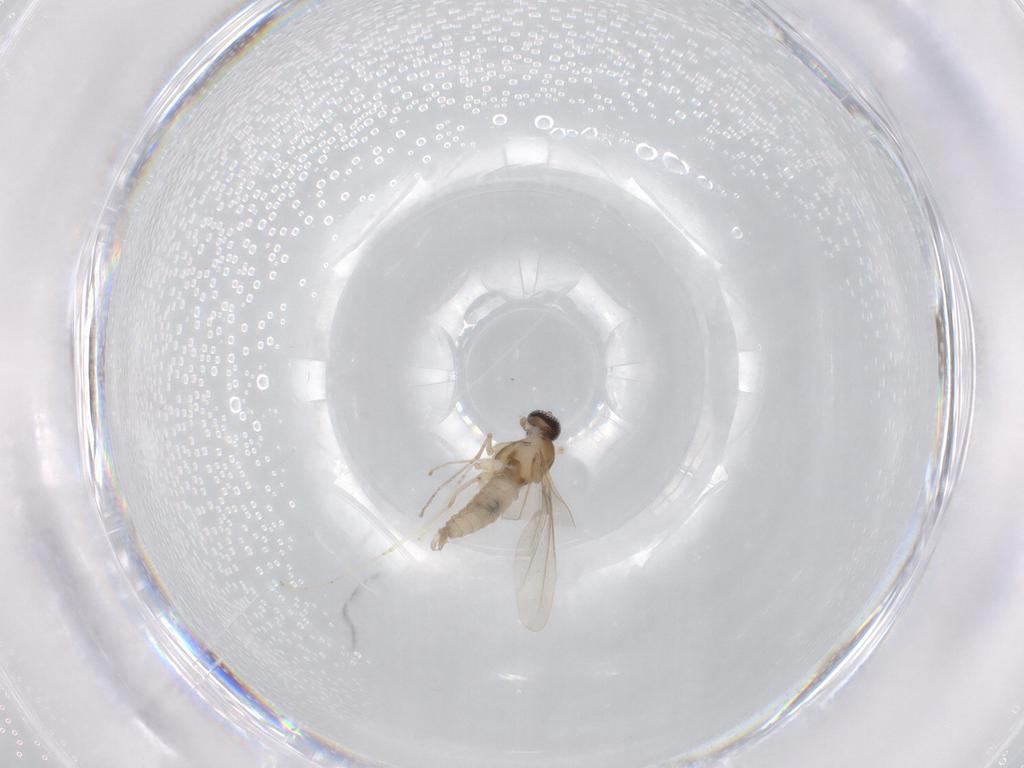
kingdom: Animalia
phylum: Arthropoda
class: Insecta
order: Diptera
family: Cecidomyiidae
